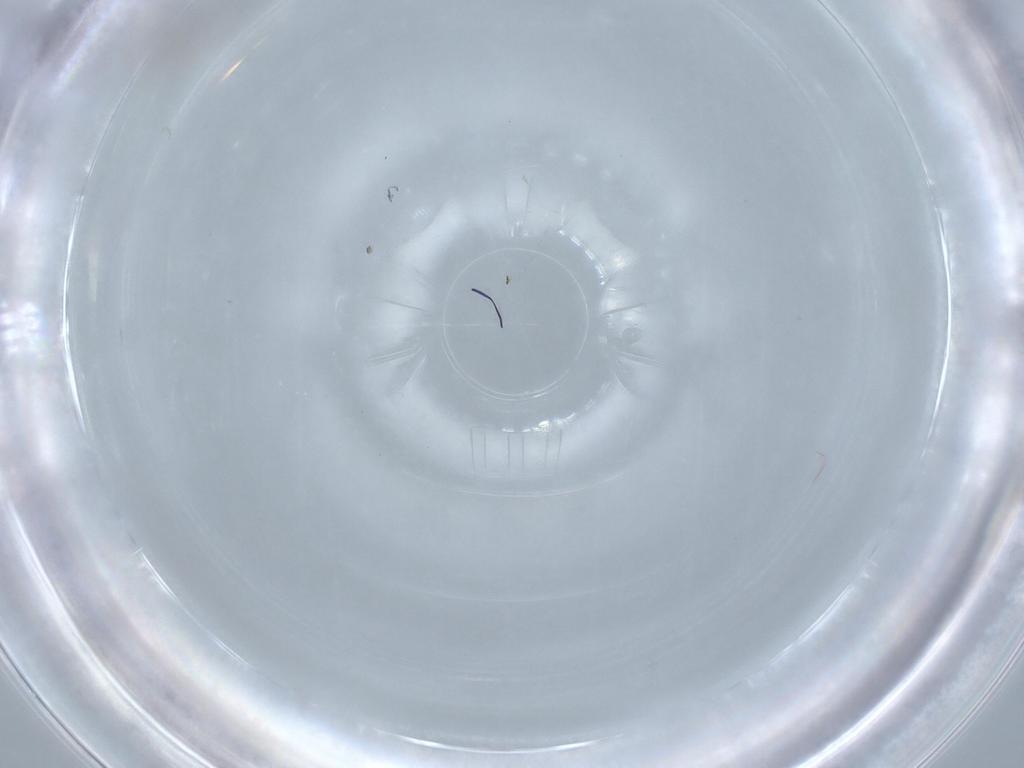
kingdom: Animalia
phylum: Arthropoda
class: Insecta
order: Diptera
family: Cecidomyiidae
